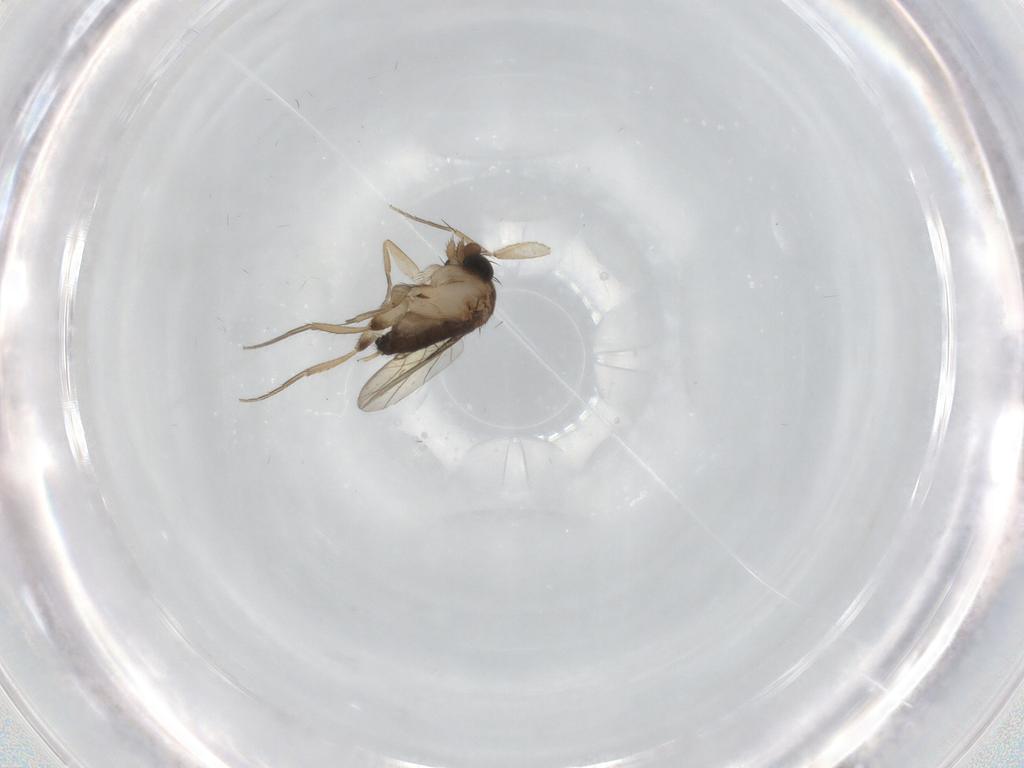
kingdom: Animalia
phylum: Arthropoda
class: Insecta
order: Diptera
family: Phoridae
